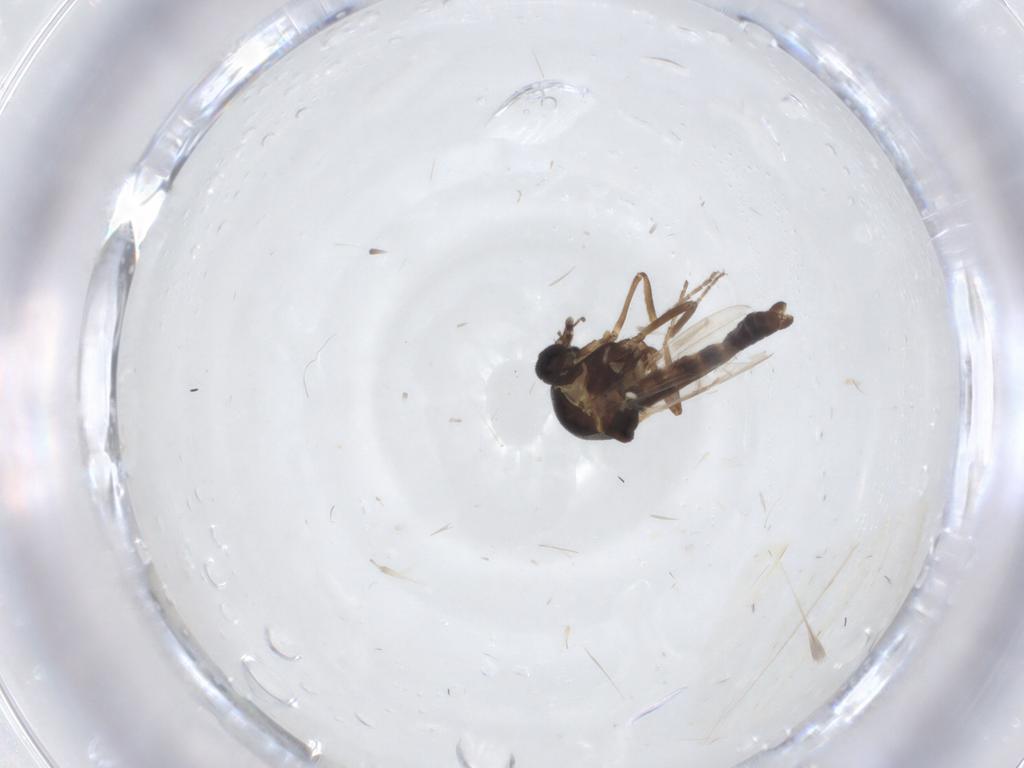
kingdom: Animalia
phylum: Arthropoda
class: Insecta
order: Diptera
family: Ceratopogonidae
